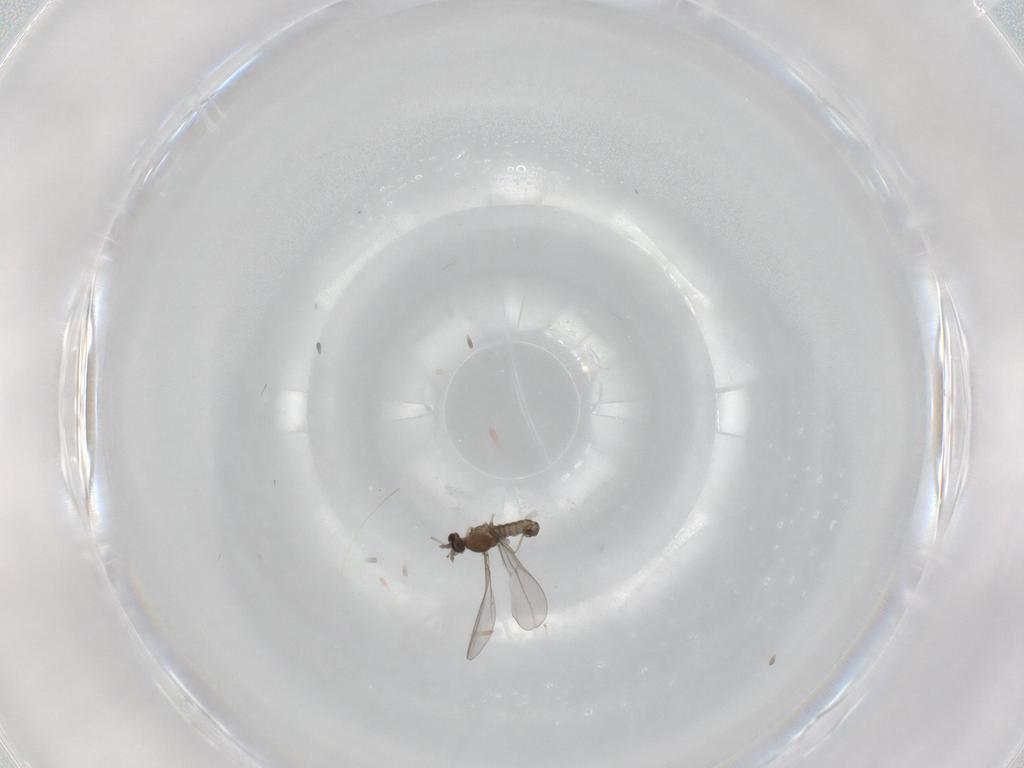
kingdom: Animalia
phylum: Arthropoda
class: Insecta
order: Diptera
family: Cecidomyiidae
